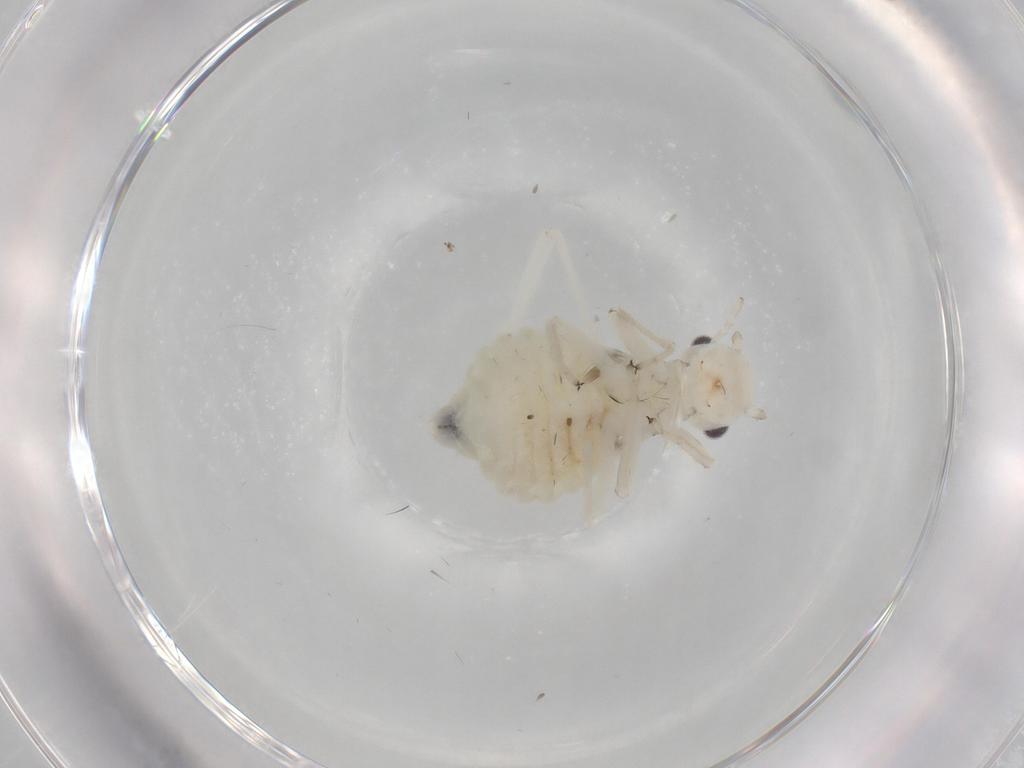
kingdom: Animalia
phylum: Arthropoda
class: Insecta
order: Psocodea
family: Amphipsocidae
